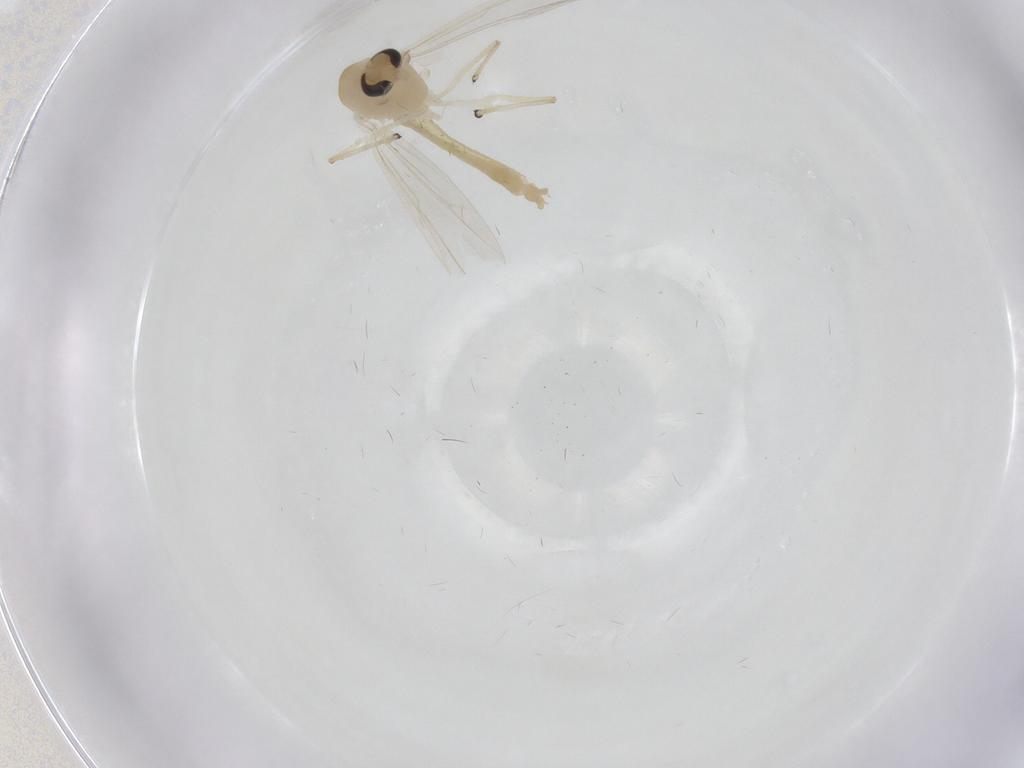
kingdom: Animalia
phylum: Arthropoda
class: Insecta
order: Diptera
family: Chironomidae
